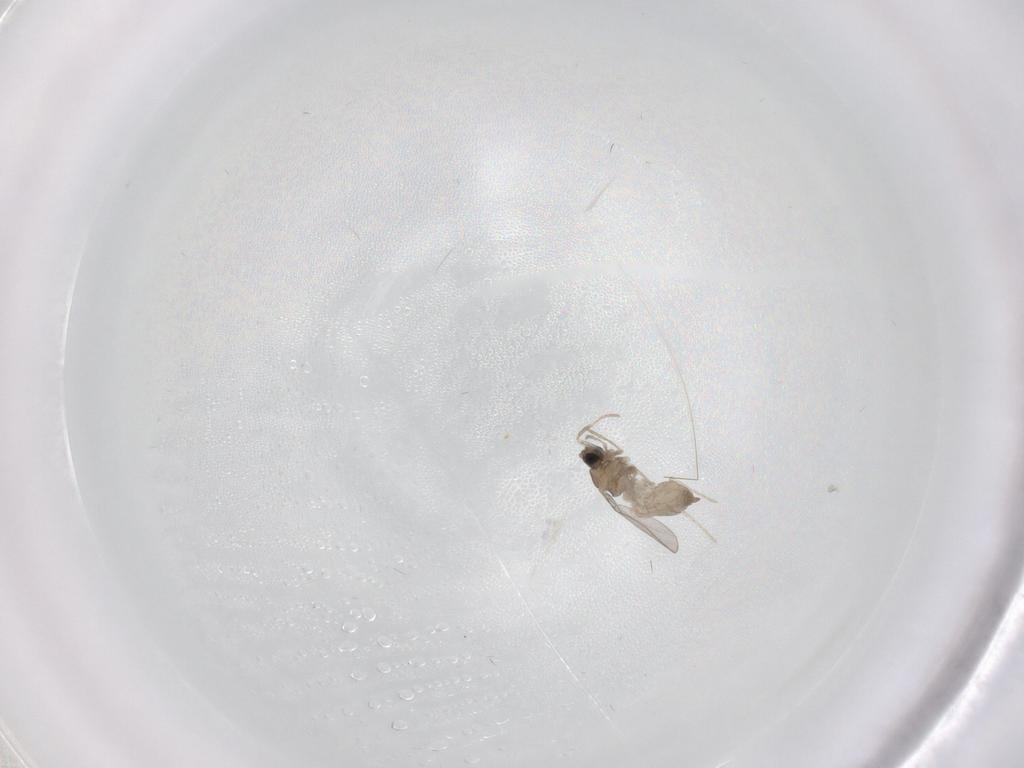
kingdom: Animalia
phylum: Arthropoda
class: Insecta
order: Diptera
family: Cecidomyiidae
